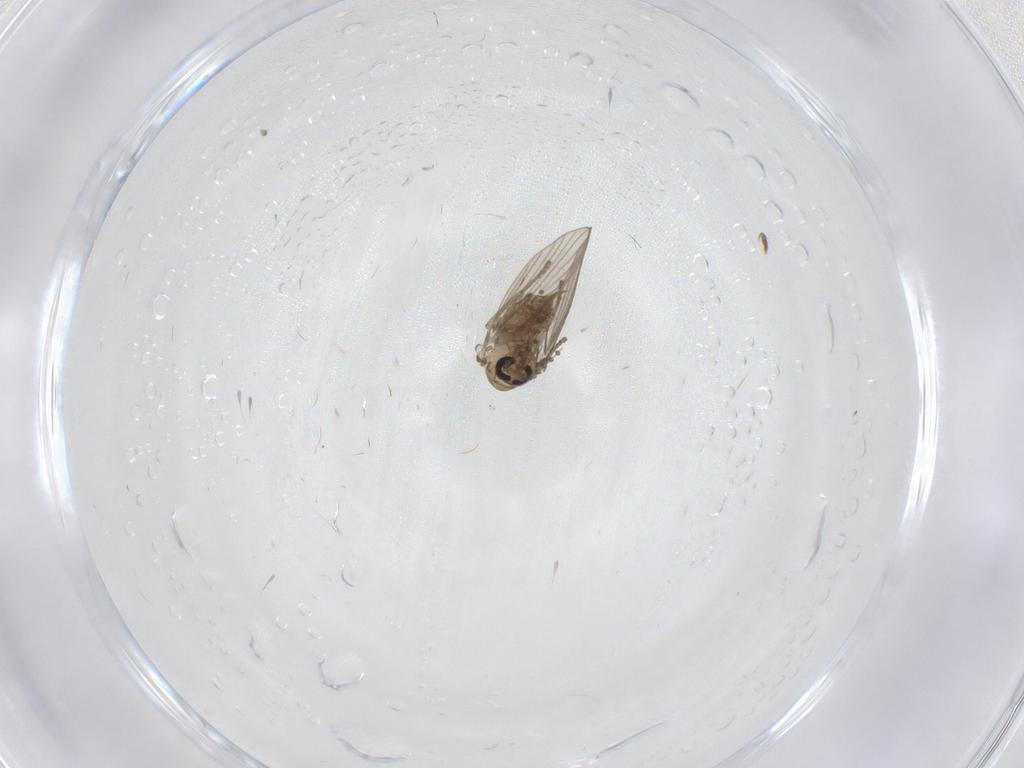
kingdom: Animalia
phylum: Arthropoda
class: Insecta
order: Diptera
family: Psychodidae
